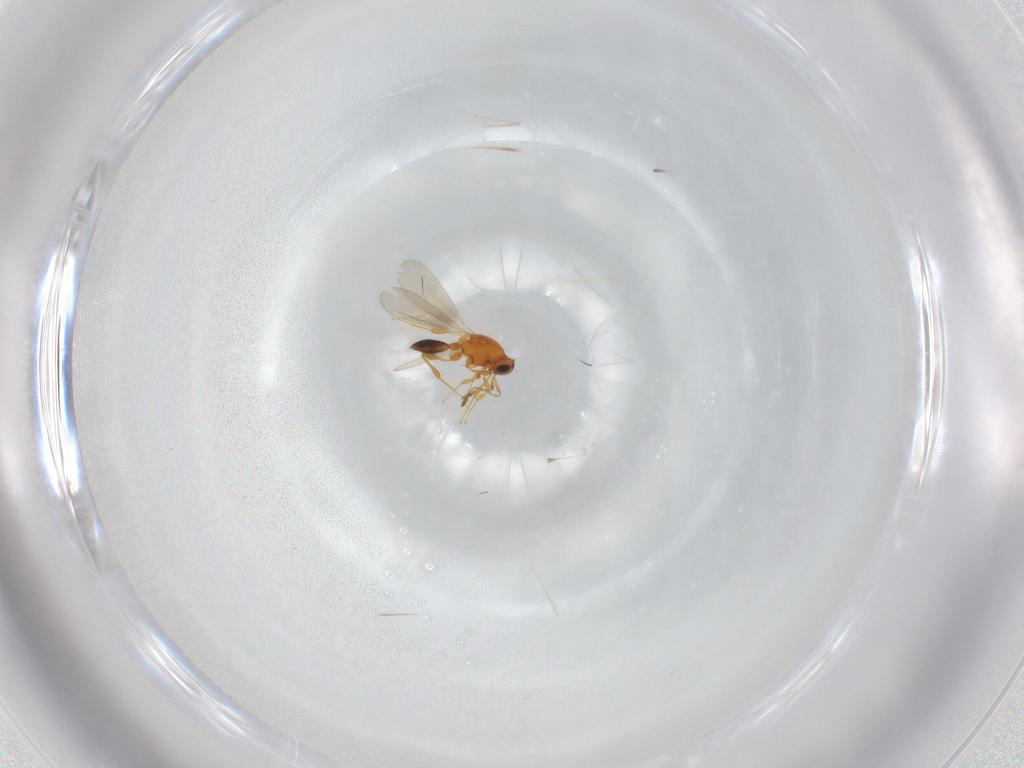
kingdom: Animalia
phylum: Arthropoda
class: Insecta
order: Hymenoptera
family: Platygastridae
